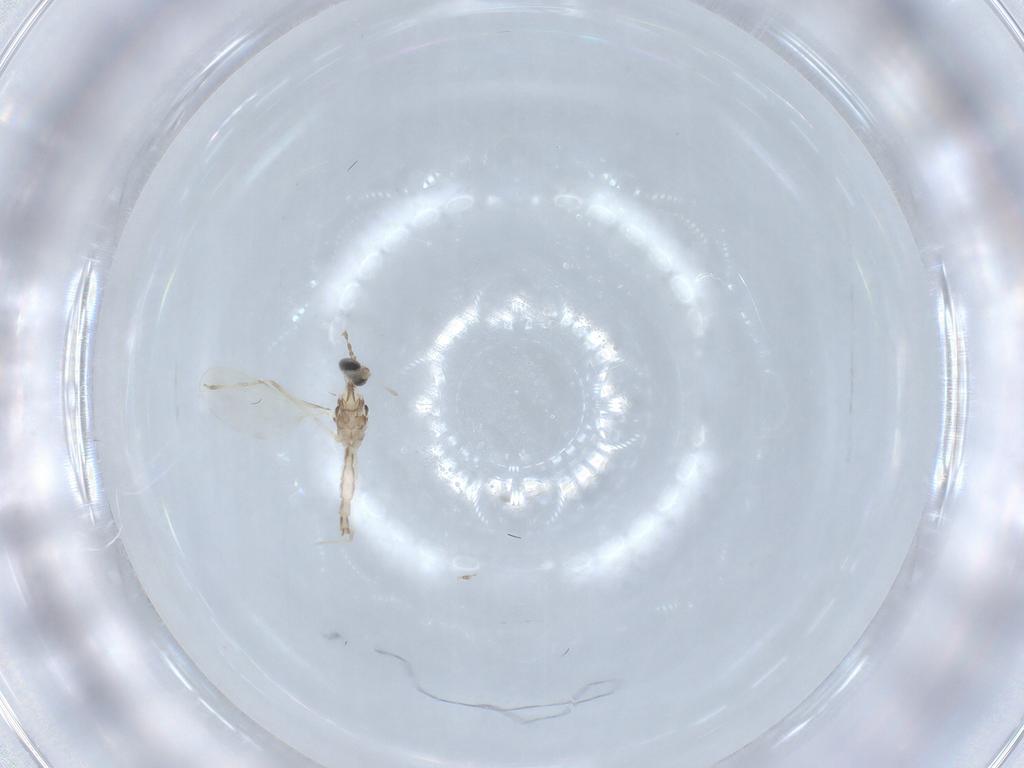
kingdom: Animalia
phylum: Arthropoda
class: Insecta
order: Diptera
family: Cecidomyiidae
